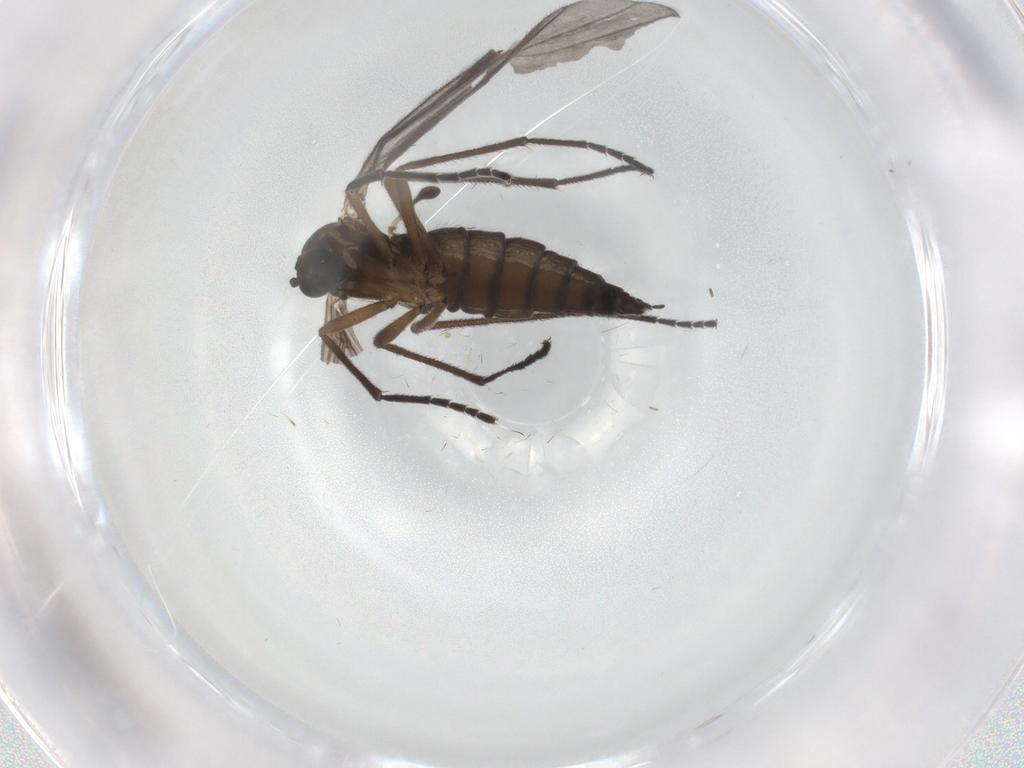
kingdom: Animalia
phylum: Arthropoda
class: Insecta
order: Diptera
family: Sciaridae
